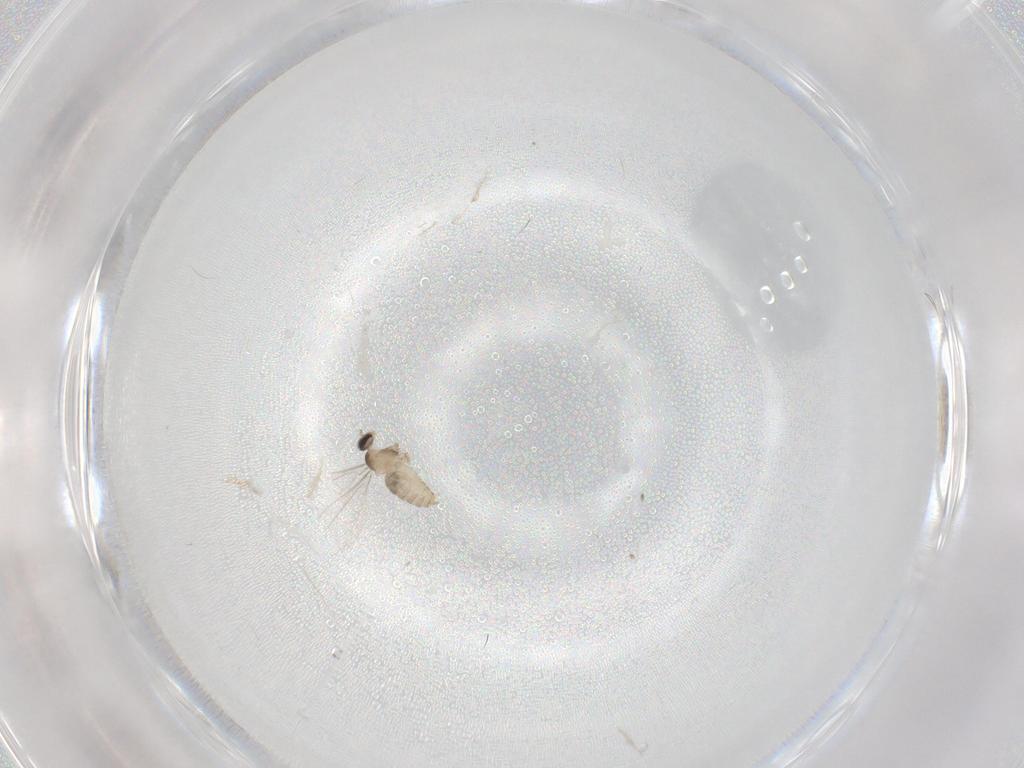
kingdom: Animalia
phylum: Arthropoda
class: Insecta
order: Diptera
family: Cecidomyiidae
